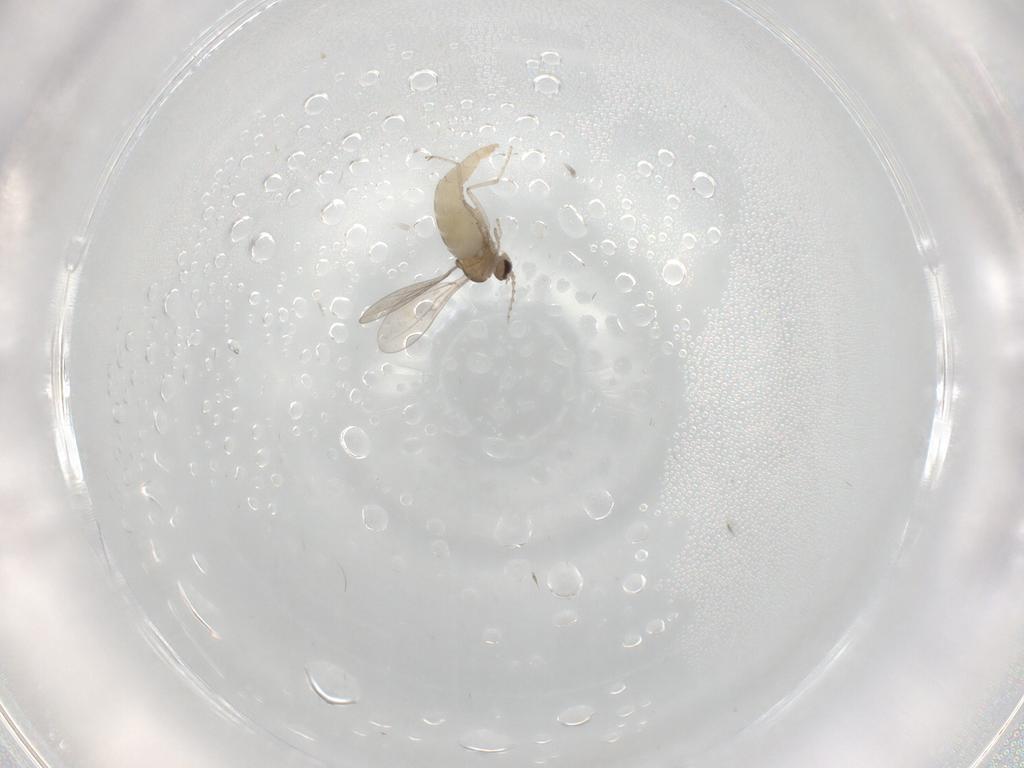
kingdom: Animalia
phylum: Arthropoda
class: Insecta
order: Diptera
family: Cecidomyiidae
